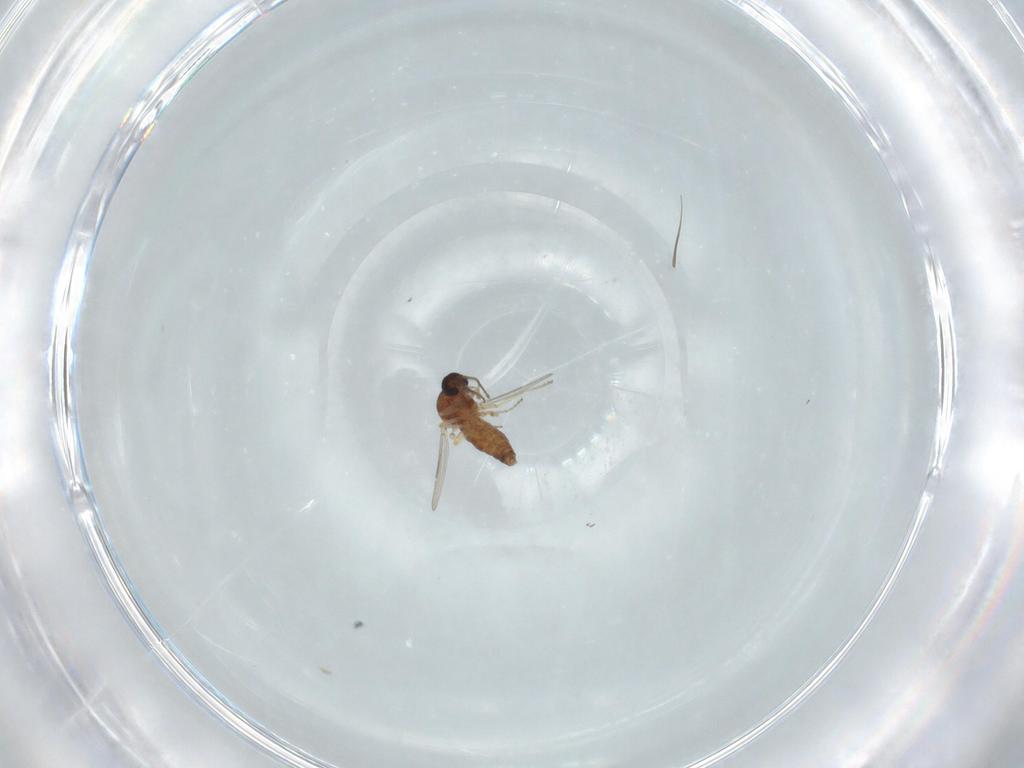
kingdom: Animalia
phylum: Arthropoda
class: Insecta
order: Diptera
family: Ceratopogonidae
